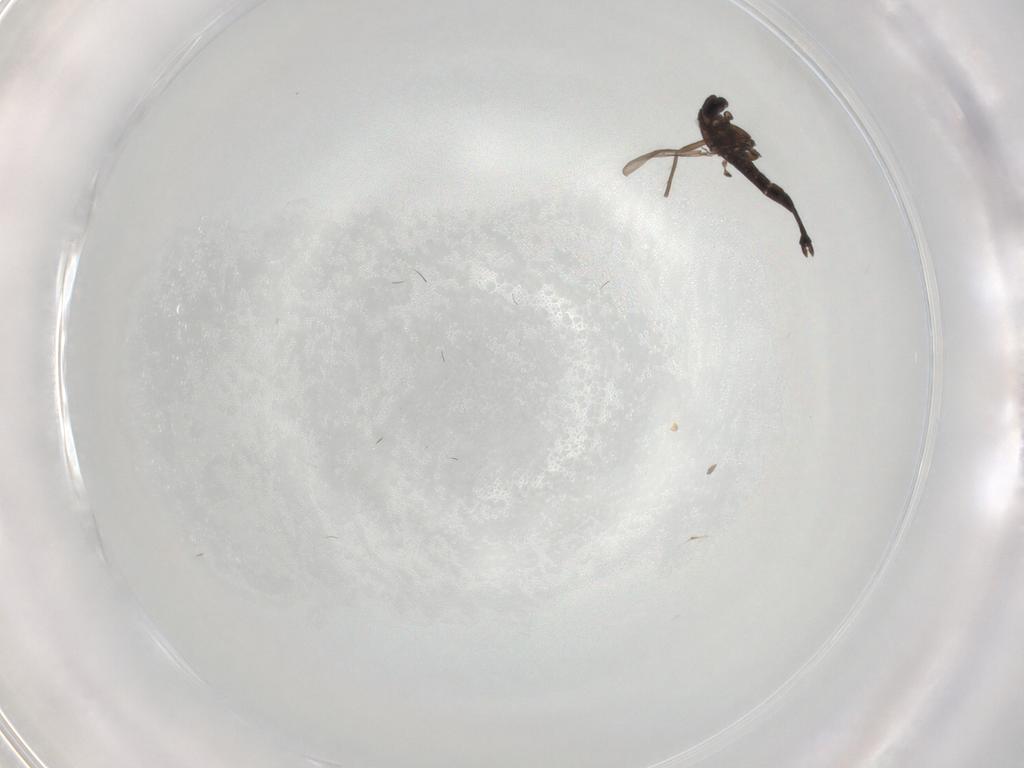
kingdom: Animalia
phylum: Arthropoda
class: Insecta
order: Diptera
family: Chironomidae
